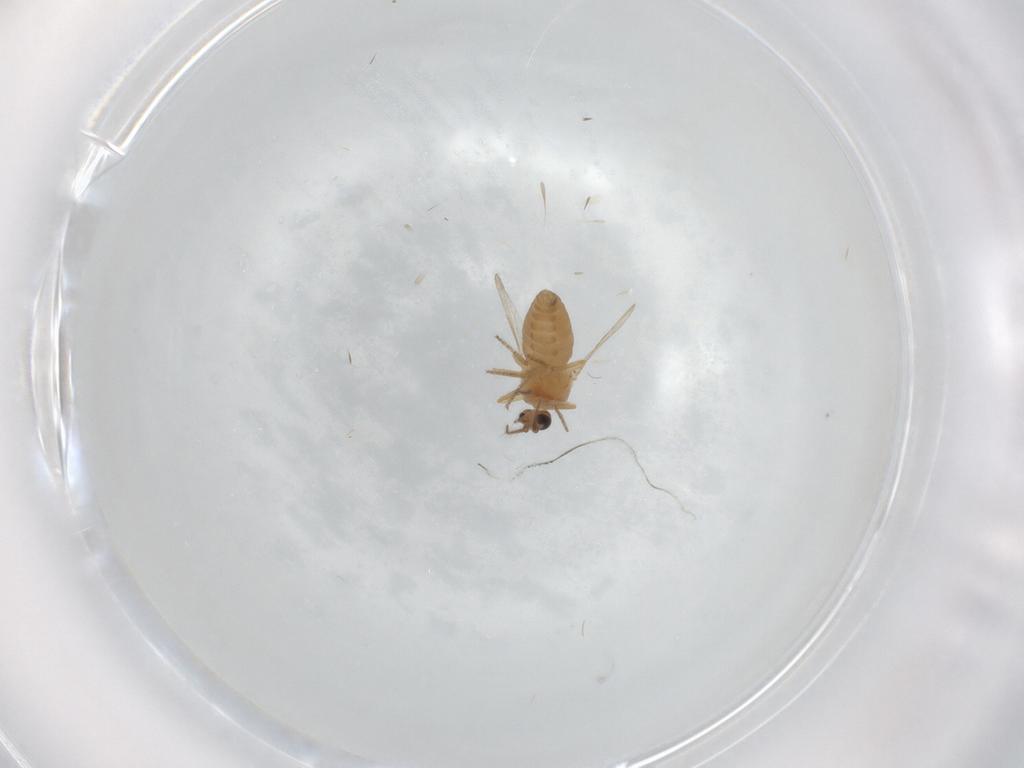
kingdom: Animalia
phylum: Arthropoda
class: Insecta
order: Diptera
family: Ceratopogonidae
